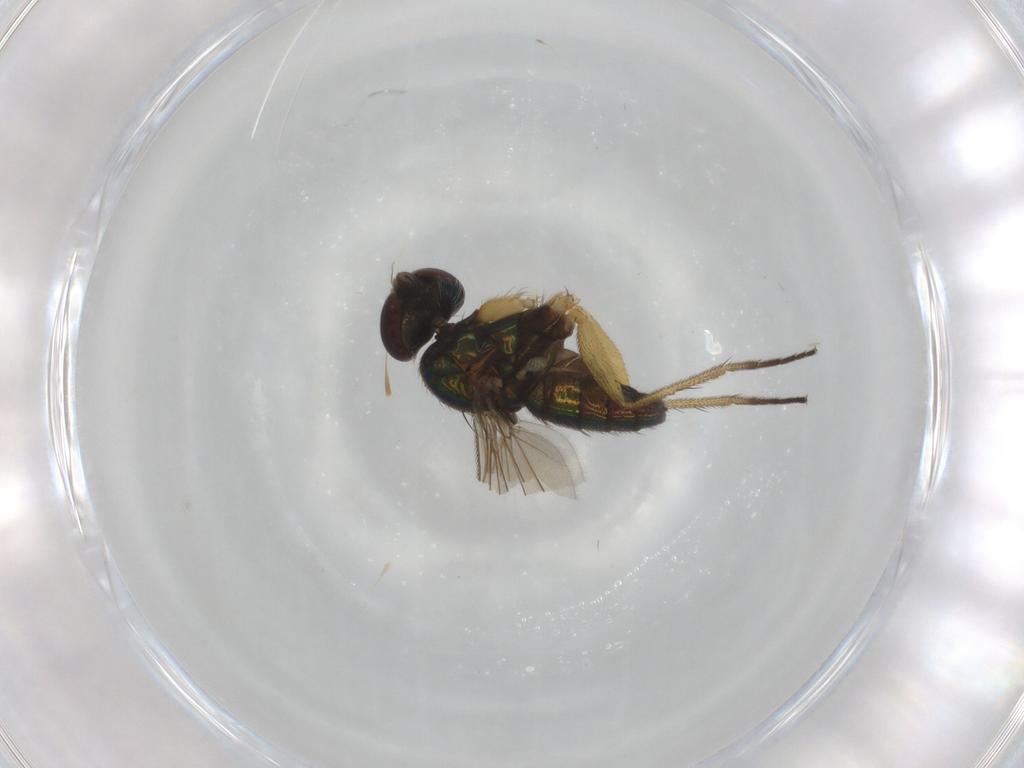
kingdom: Animalia
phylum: Arthropoda
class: Insecta
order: Diptera
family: Dolichopodidae
